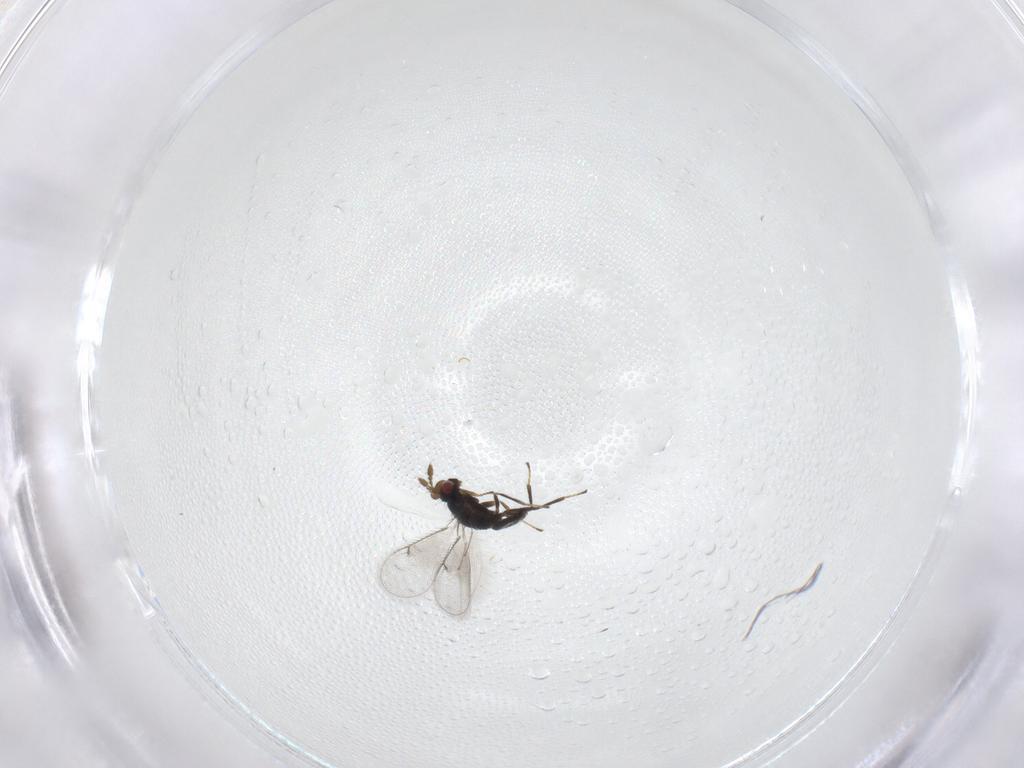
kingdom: Animalia
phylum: Arthropoda
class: Insecta
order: Hymenoptera
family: Eulophidae
